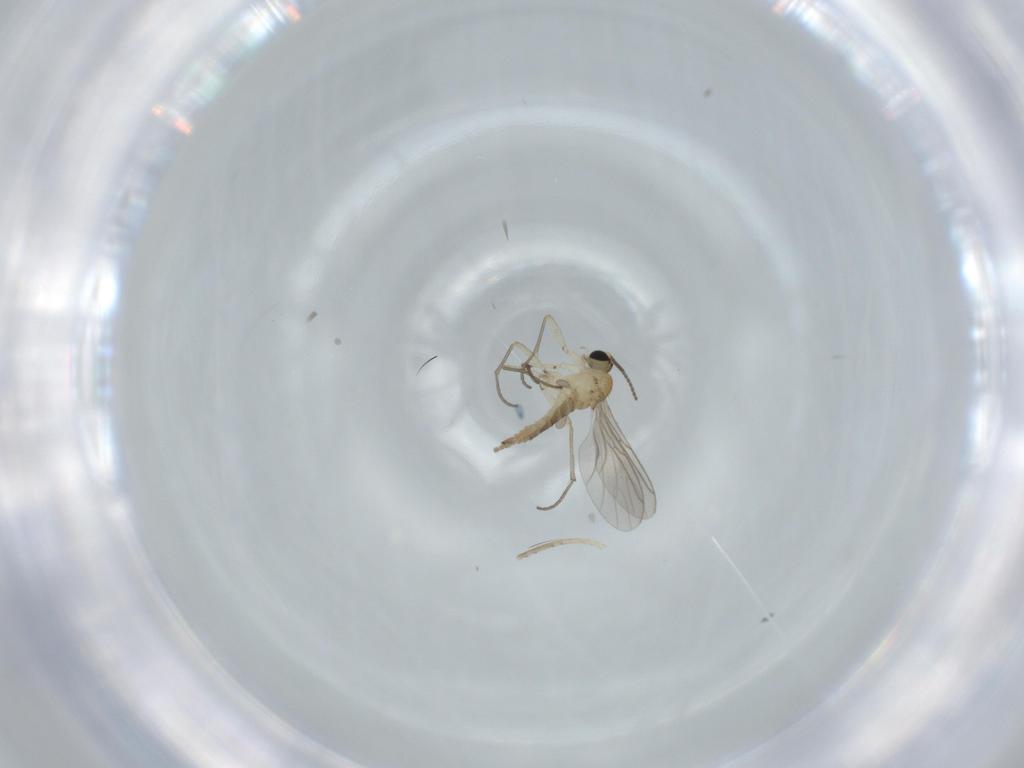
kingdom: Animalia
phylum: Arthropoda
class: Insecta
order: Diptera
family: Sciaridae
